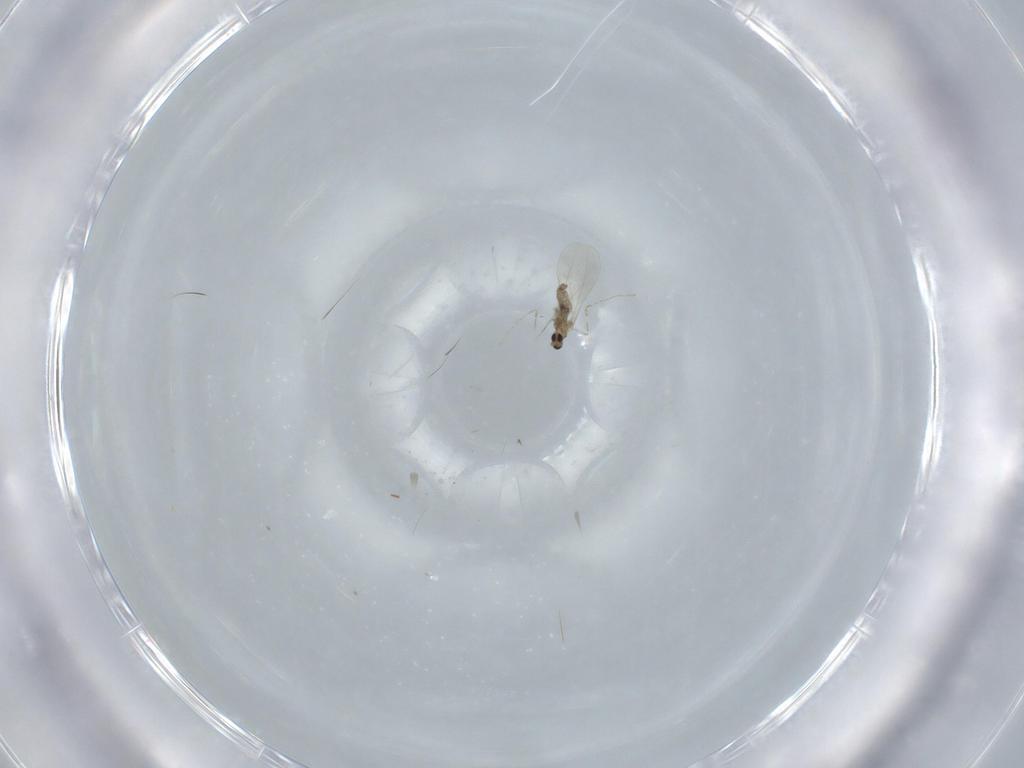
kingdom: Animalia
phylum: Arthropoda
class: Insecta
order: Diptera
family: Cecidomyiidae
